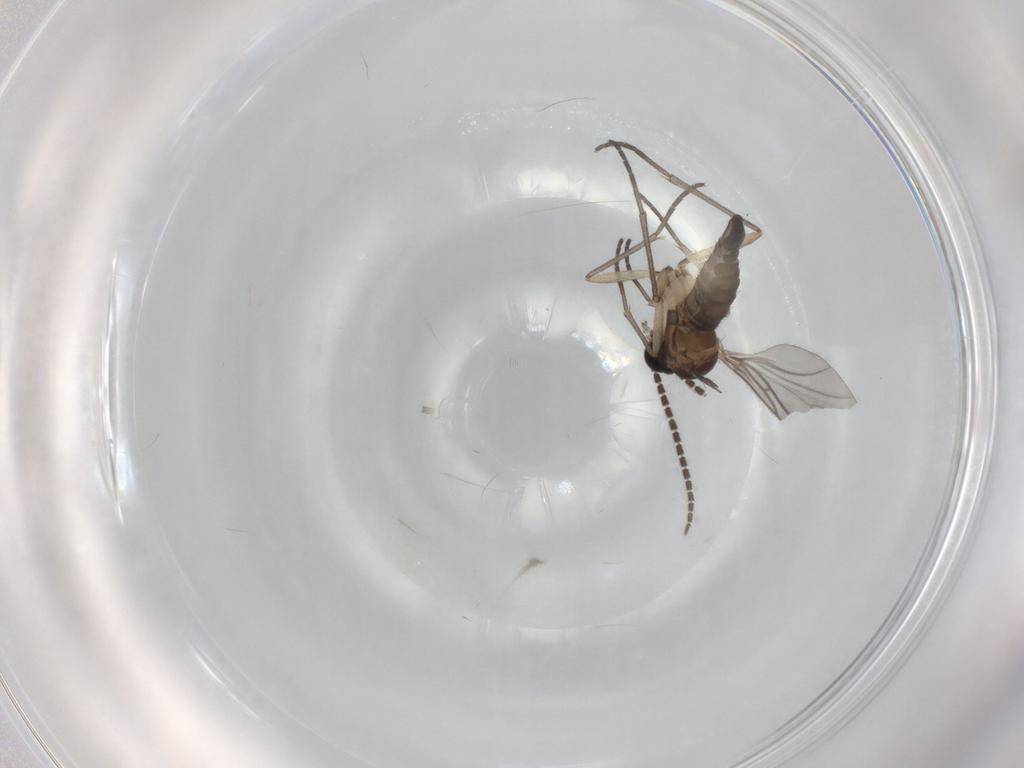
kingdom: Animalia
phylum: Arthropoda
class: Insecta
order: Diptera
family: Sciaridae
